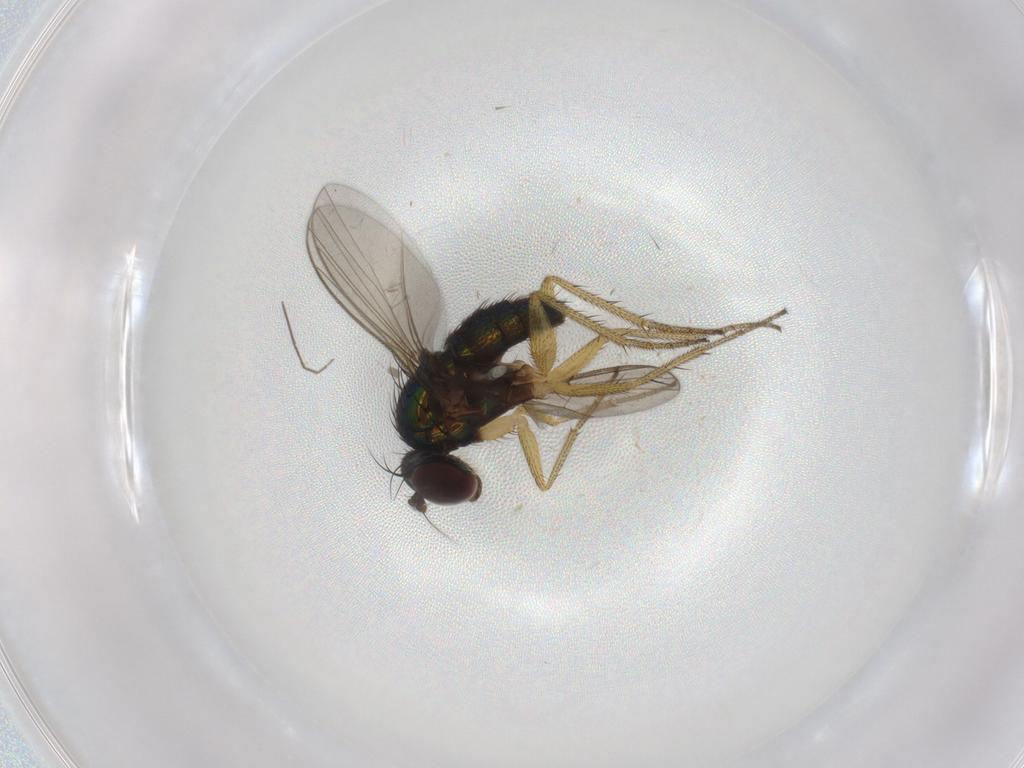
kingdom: Animalia
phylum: Arthropoda
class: Insecta
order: Diptera
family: Chironomidae
